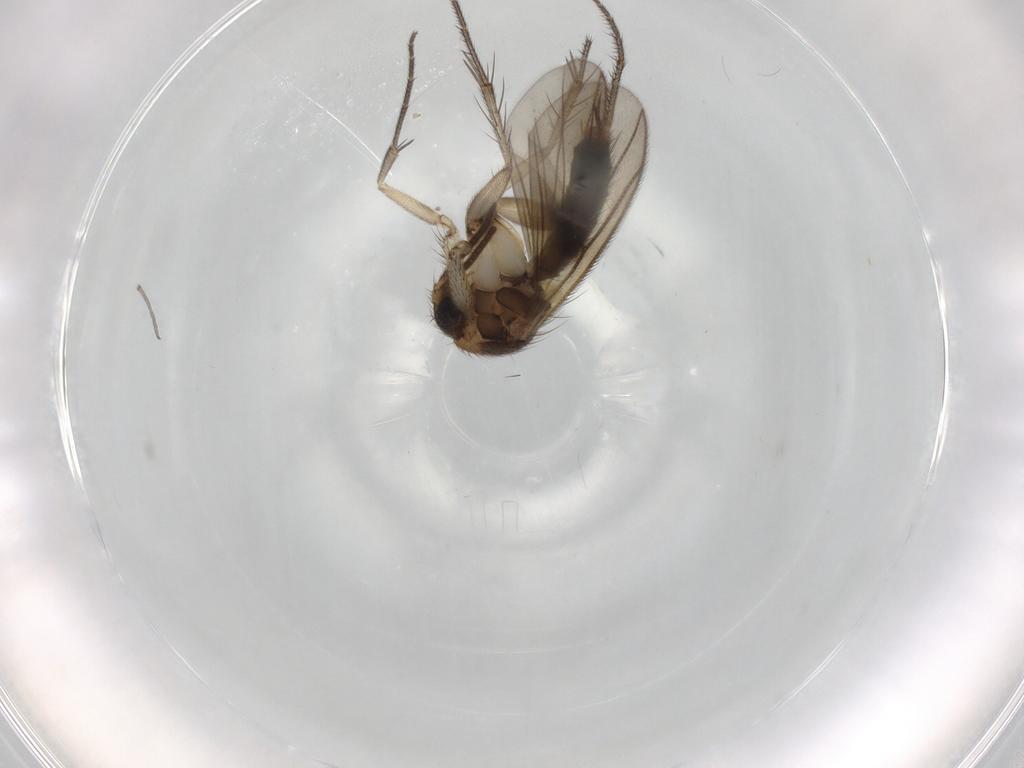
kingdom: Animalia
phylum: Arthropoda
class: Insecta
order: Diptera
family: Mycetophilidae
